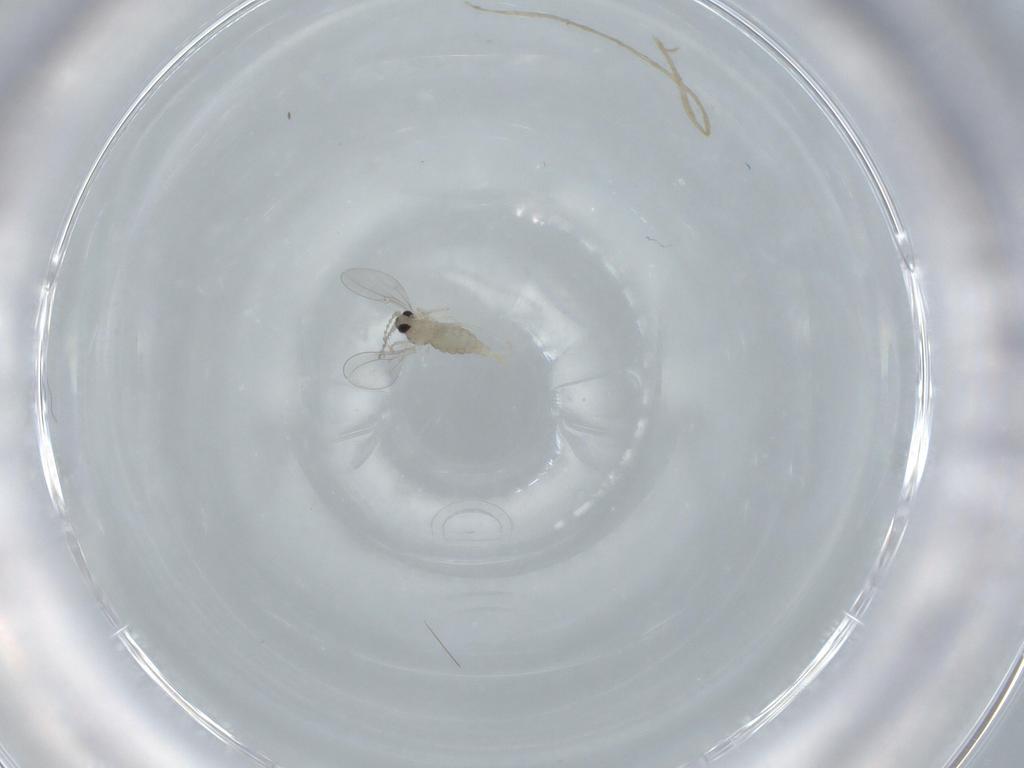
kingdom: Animalia
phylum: Arthropoda
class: Insecta
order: Diptera
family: Cecidomyiidae
